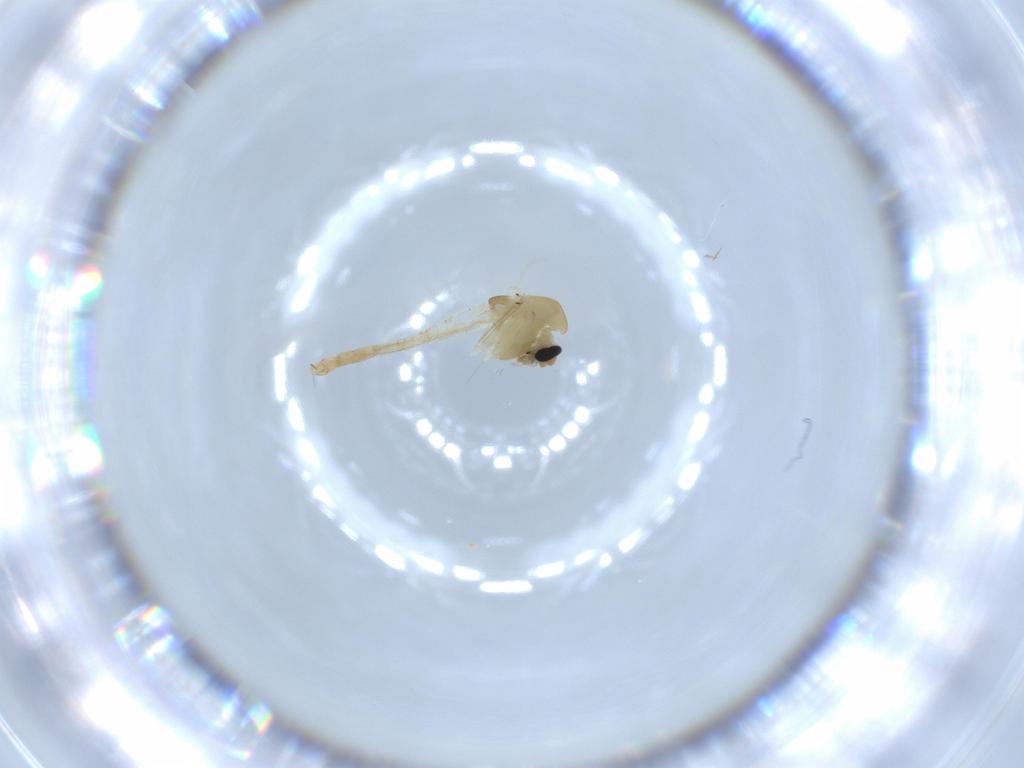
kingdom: Animalia
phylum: Arthropoda
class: Insecta
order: Diptera
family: Chironomidae
